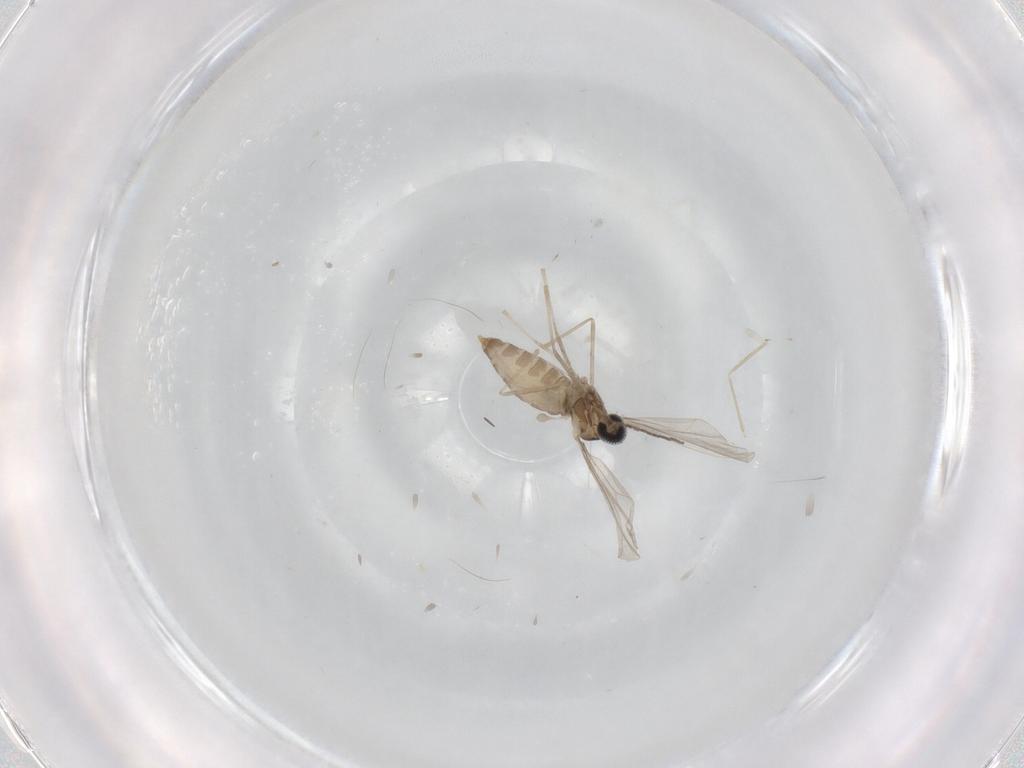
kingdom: Animalia
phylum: Arthropoda
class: Insecta
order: Diptera
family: Cecidomyiidae
